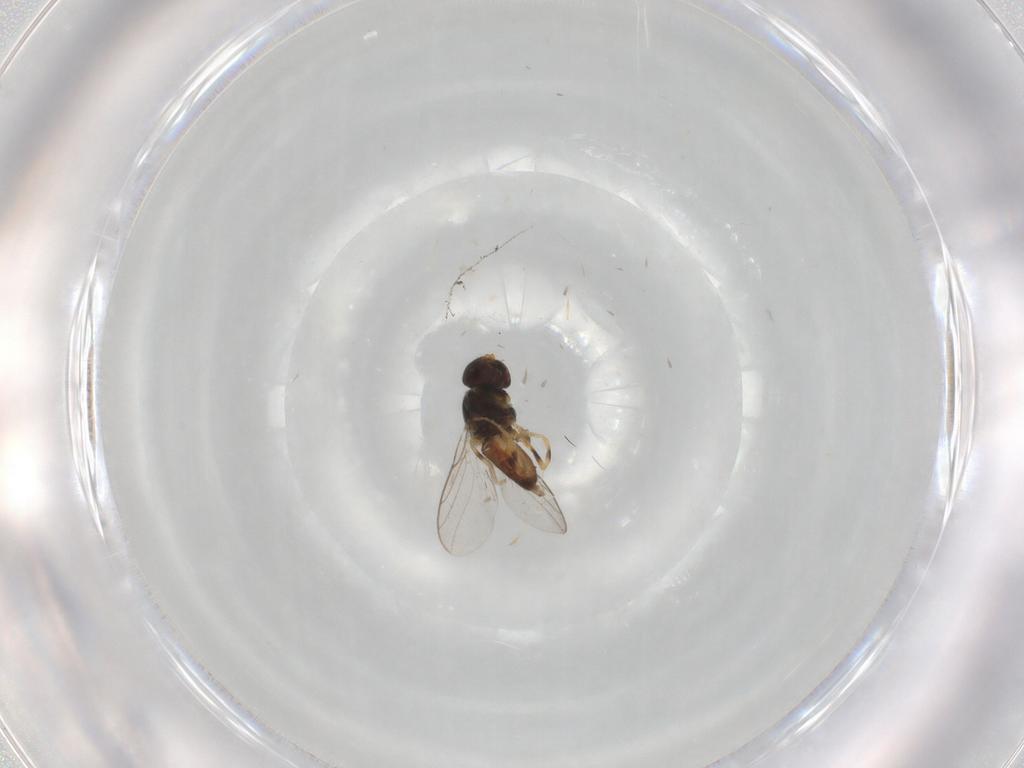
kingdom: Animalia
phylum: Arthropoda
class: Insecta
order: Diptera
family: Chloropidae
